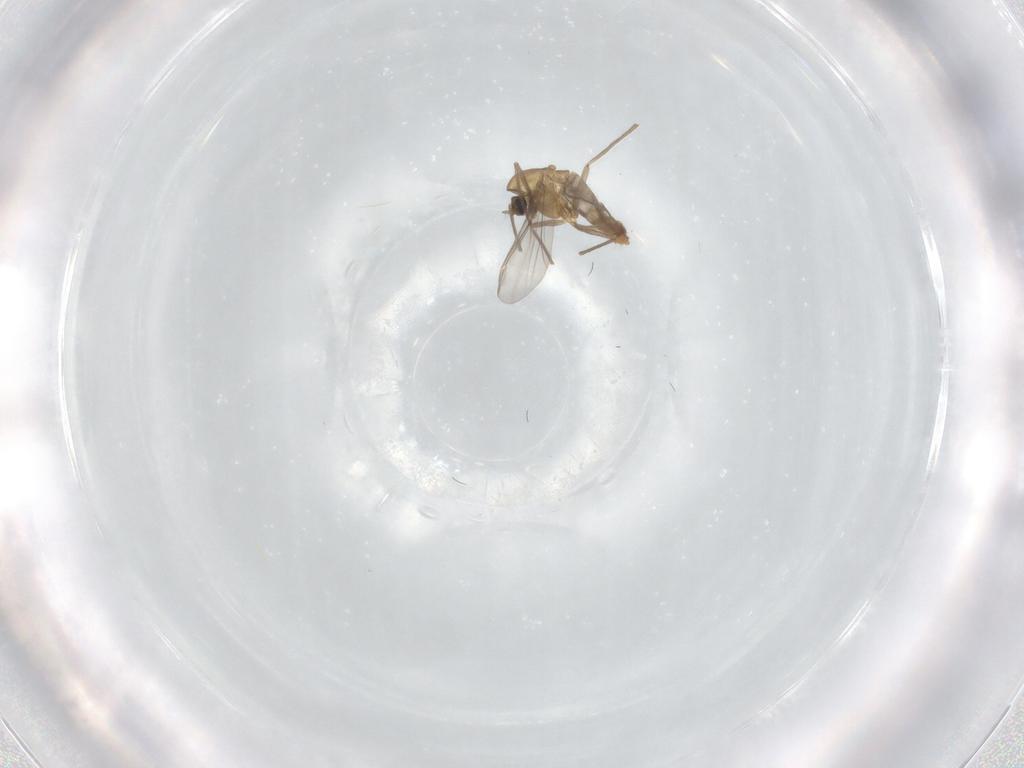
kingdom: Animalia
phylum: Arthropoda
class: Insecta
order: Diptera
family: Chironomidae
